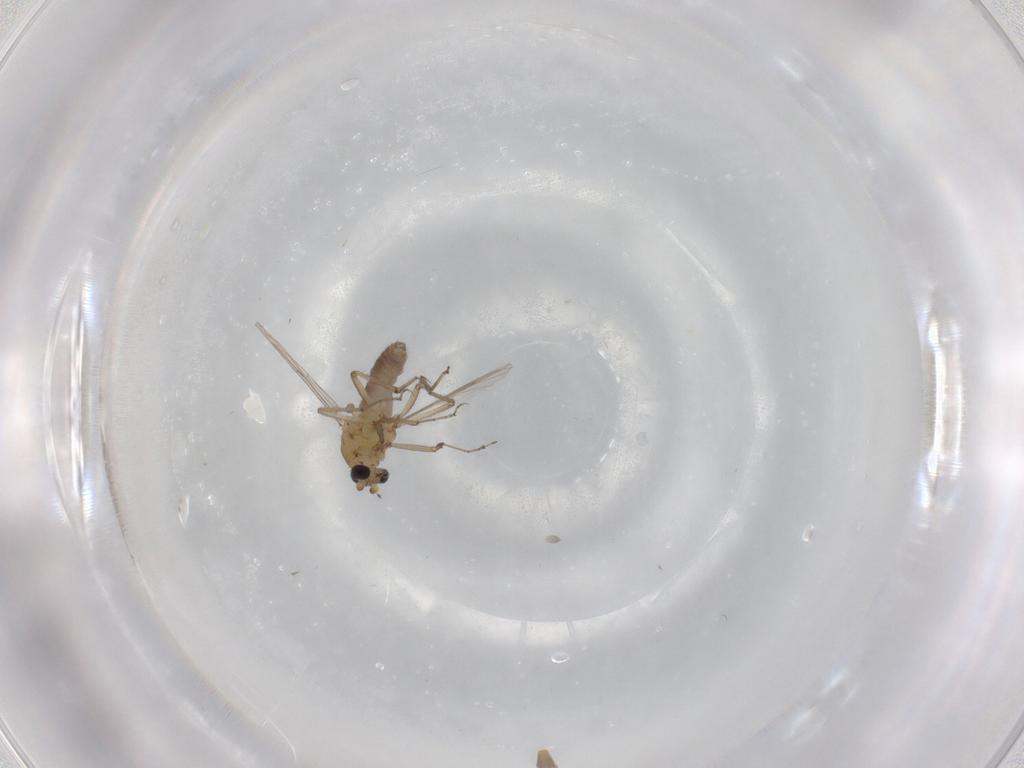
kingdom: Animalia
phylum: Arthropoda
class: Insecta
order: Diptera
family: Ceratopogonidae
